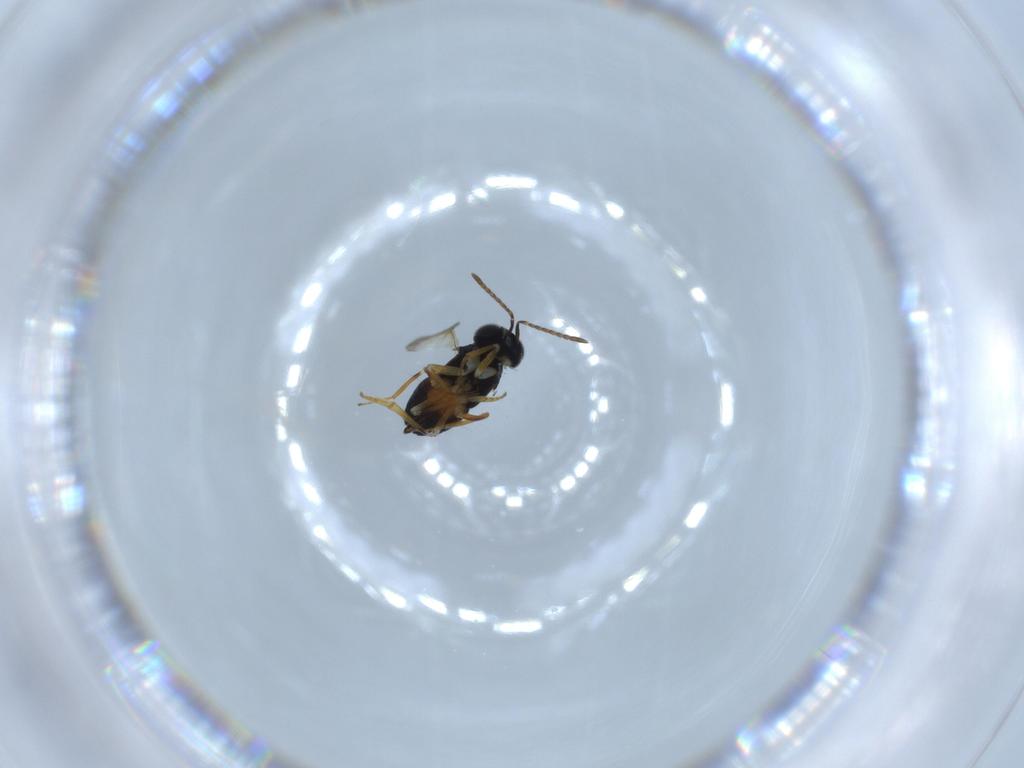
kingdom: Animalia
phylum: Arthropoda
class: Insecta
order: Hymenoptera
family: Encyrtidae
